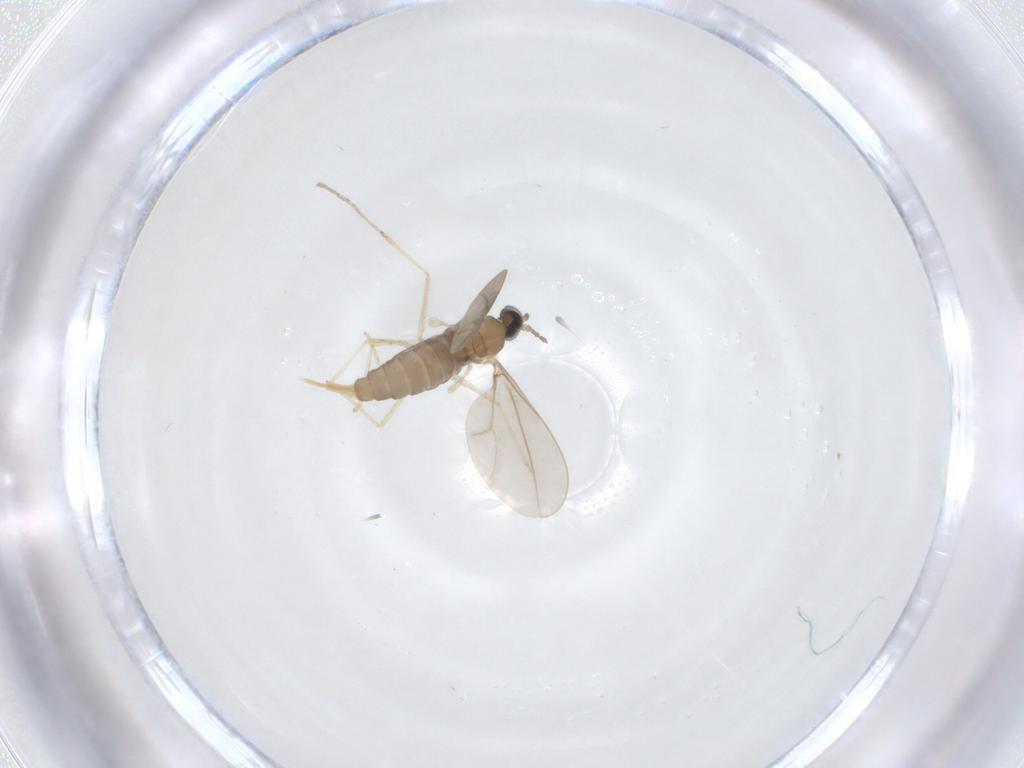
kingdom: Animalia
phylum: Arthropoda
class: Insecta
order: Diptera
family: Cecidomyiidae
